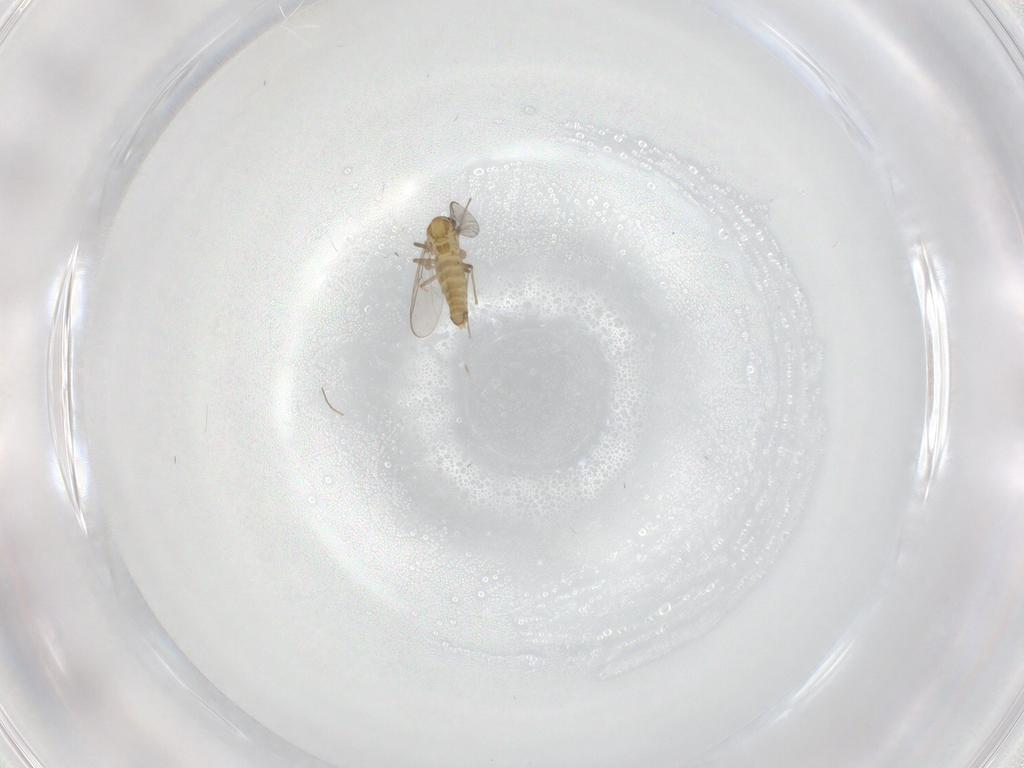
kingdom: Animalia
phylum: Arthropoda
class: Insecta
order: Diptera
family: Chironomidae
